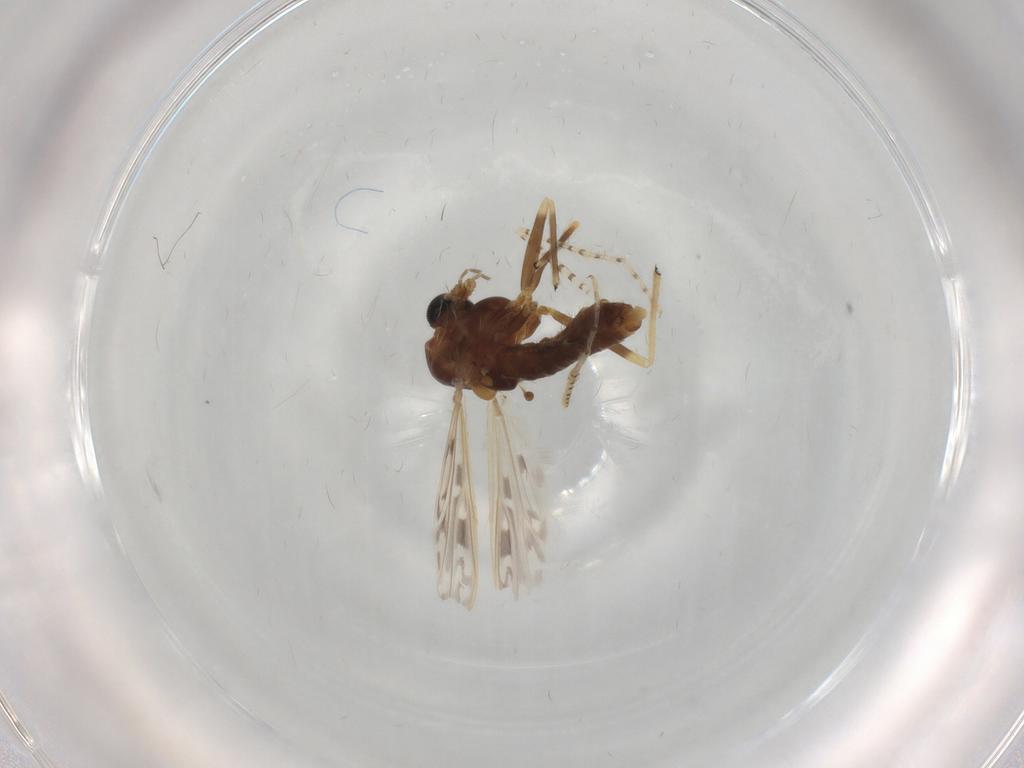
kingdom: Animalia
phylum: Arthropoda
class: Insecta
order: Diptera
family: Chironomidae
